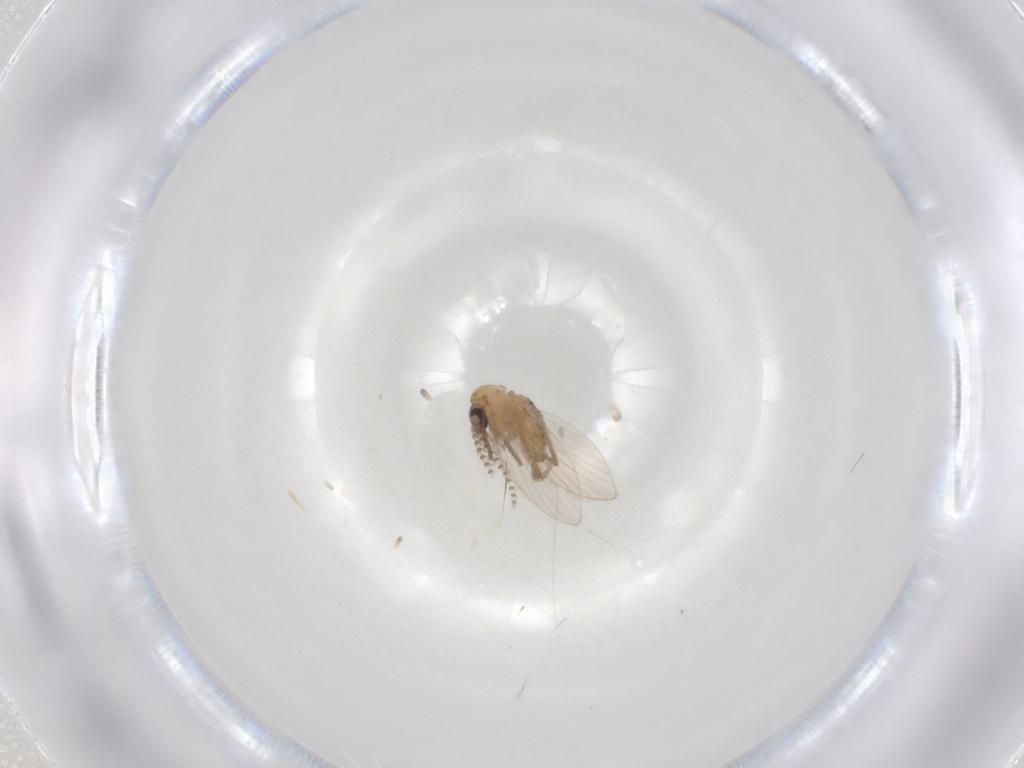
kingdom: Animalia
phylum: Arthropoda
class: Insecta
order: Diptera
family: Psychodidae
